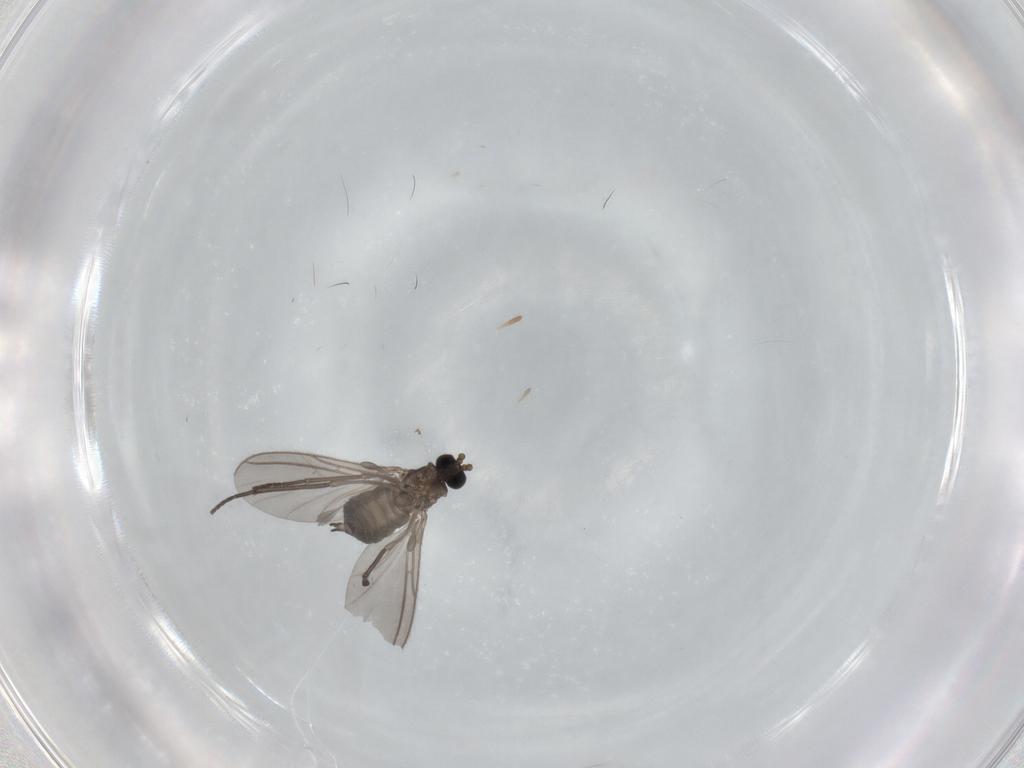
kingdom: Animalia
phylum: Arthropoda
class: Insecta
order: Diptera
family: Sciaridae
